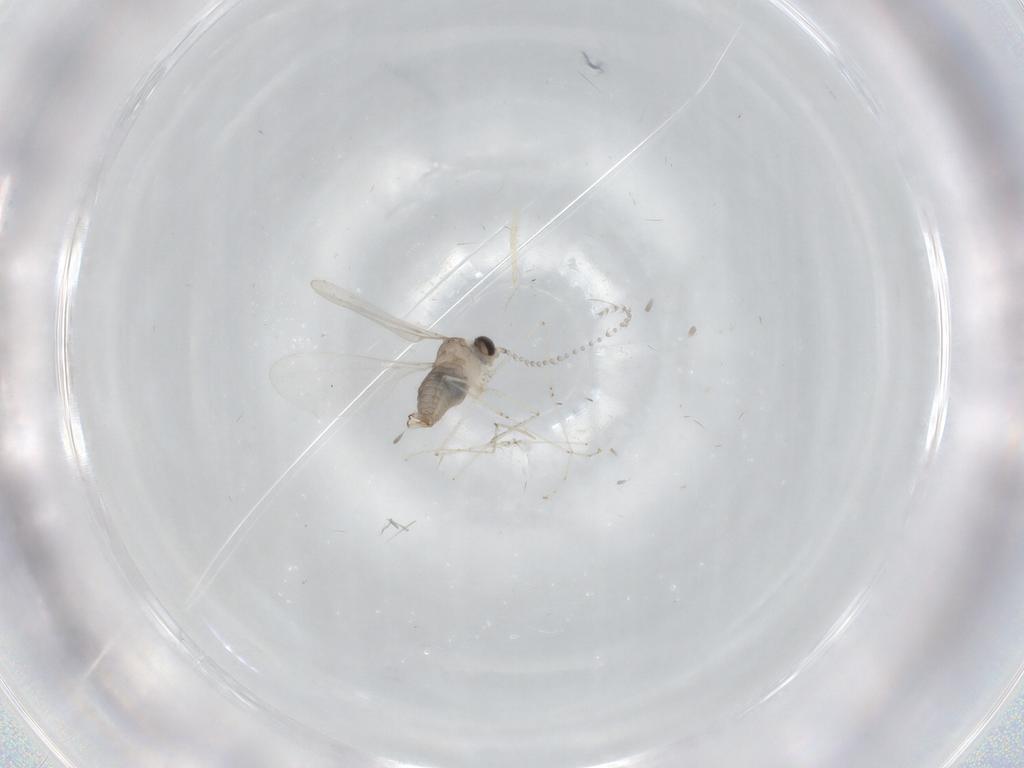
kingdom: Animalia
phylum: Arthropoda
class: Insecta
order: Diptera
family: Cecidomyiidae
